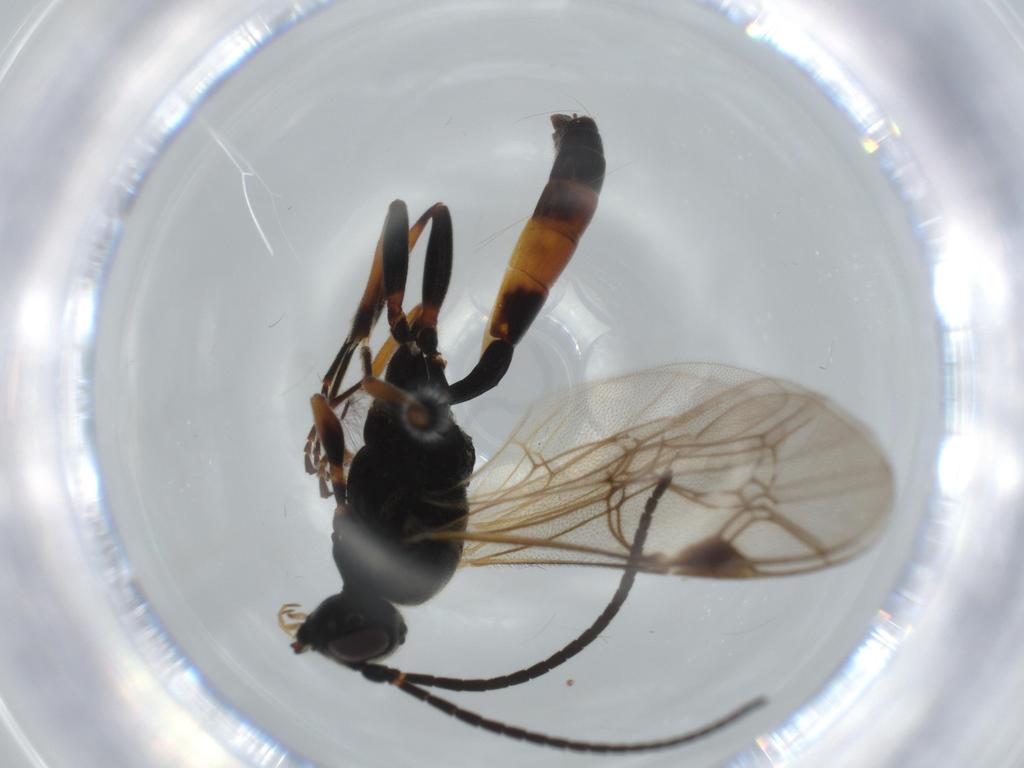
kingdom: Animalia
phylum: Arthropoda
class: Insecta
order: Hymenoptera
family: Ichneumonidae
